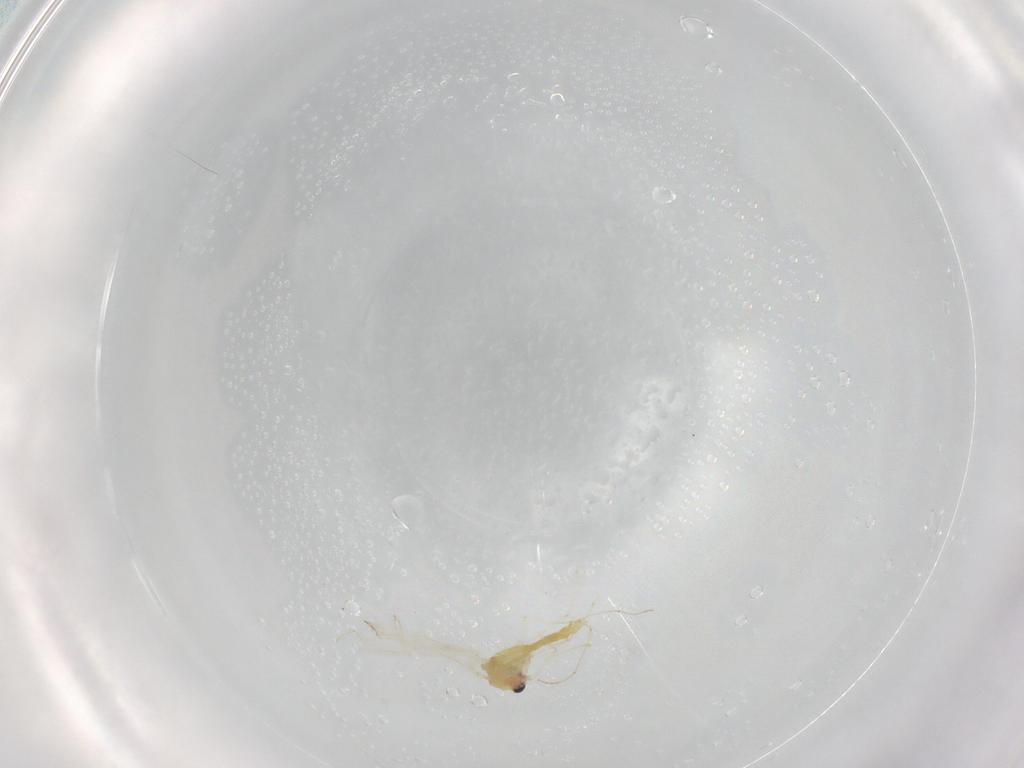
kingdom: Animalia
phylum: Arthropoda
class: Insecta
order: Diptera
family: Chironomidae
